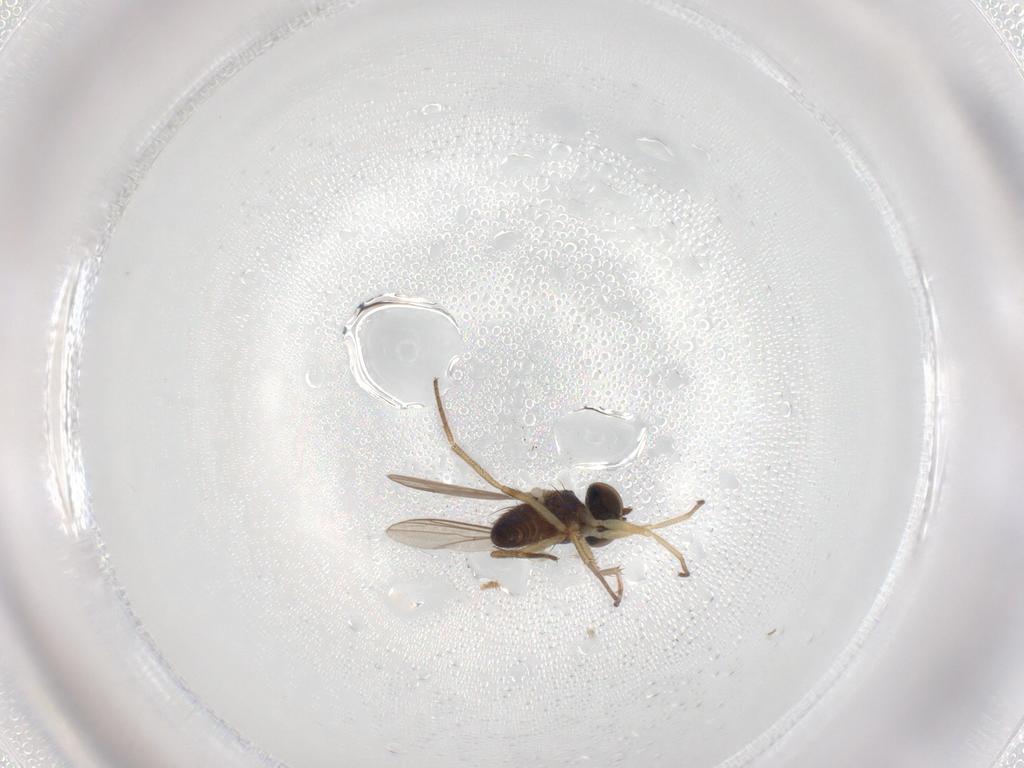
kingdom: Animalia
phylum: Arthropoda
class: Insecta
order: Diptera
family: Dolichopodidae
